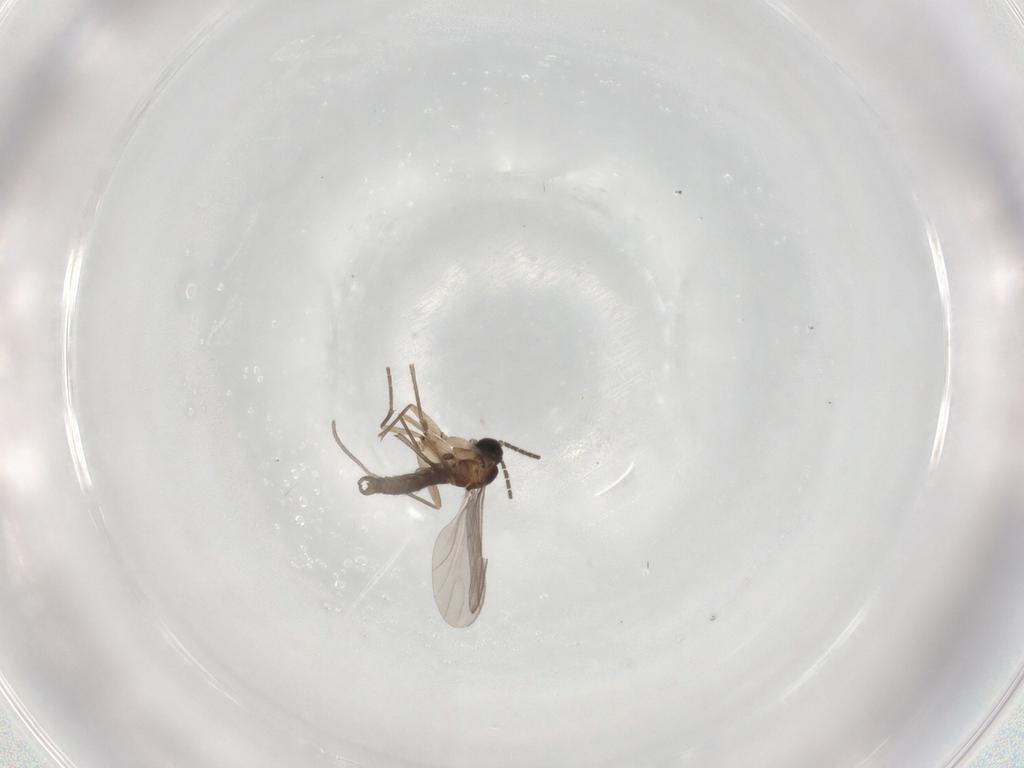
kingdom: Animalia
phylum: Arthropoda
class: Insecta
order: Diptera
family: Sciaridae
